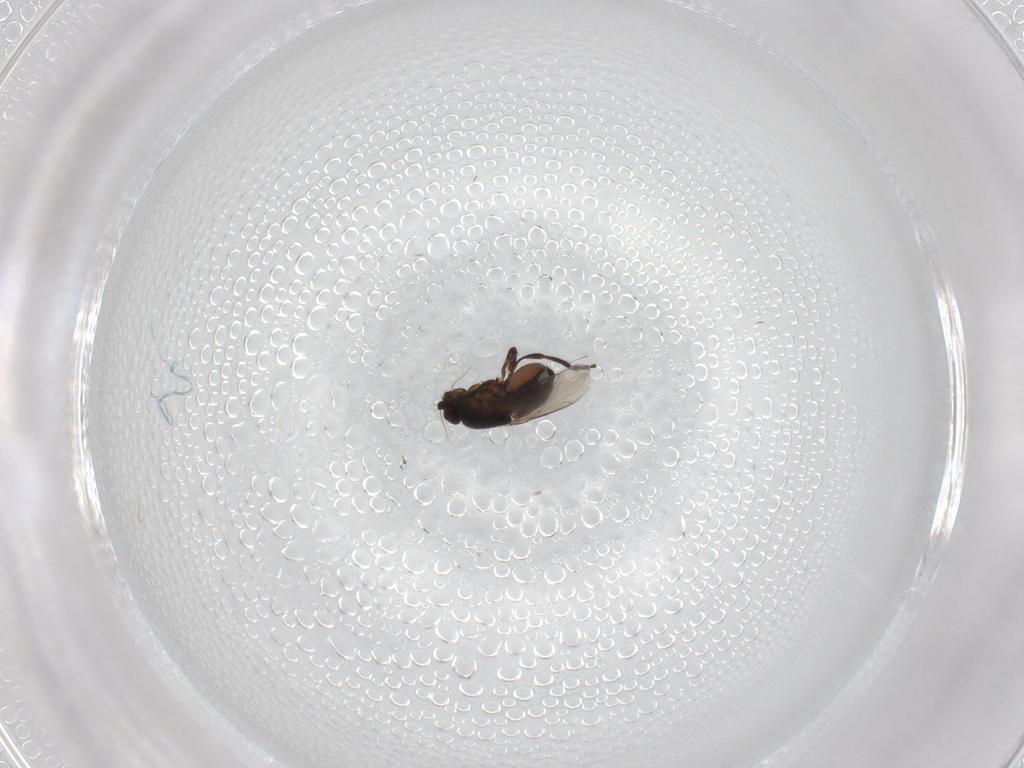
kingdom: Animalia
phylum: Arthropoda
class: Insecta
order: Diptera
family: Sphaeroceridae
